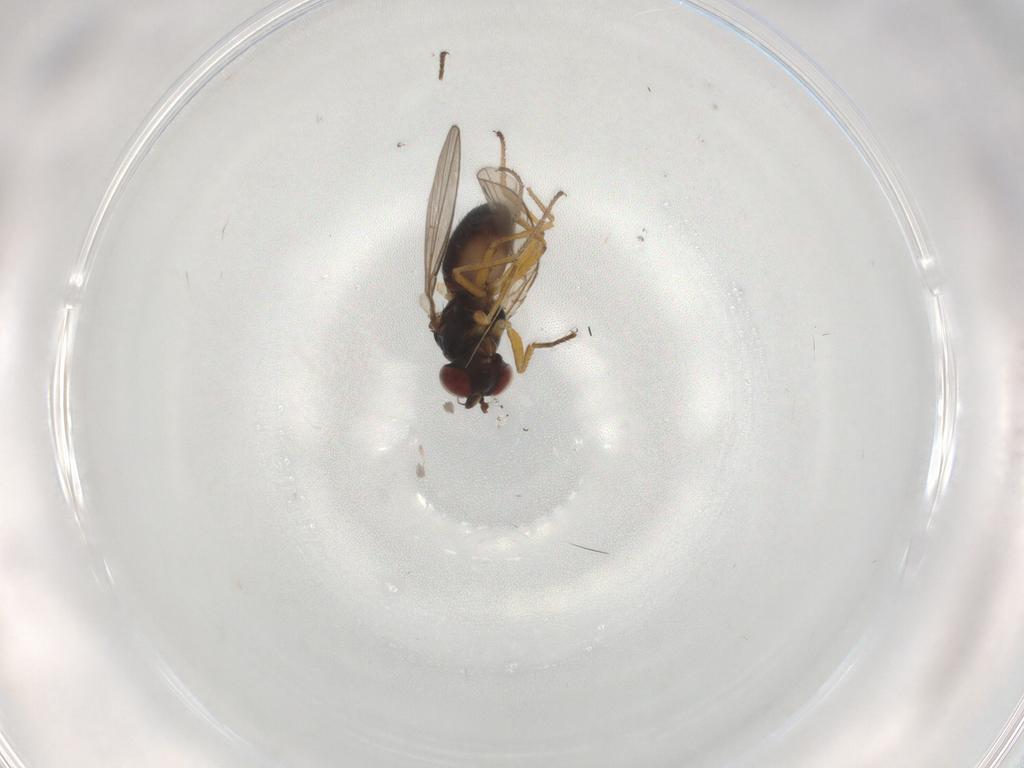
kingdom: Animalia
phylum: Arthropoda
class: Insecta
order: Diptera
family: Ephydridae
